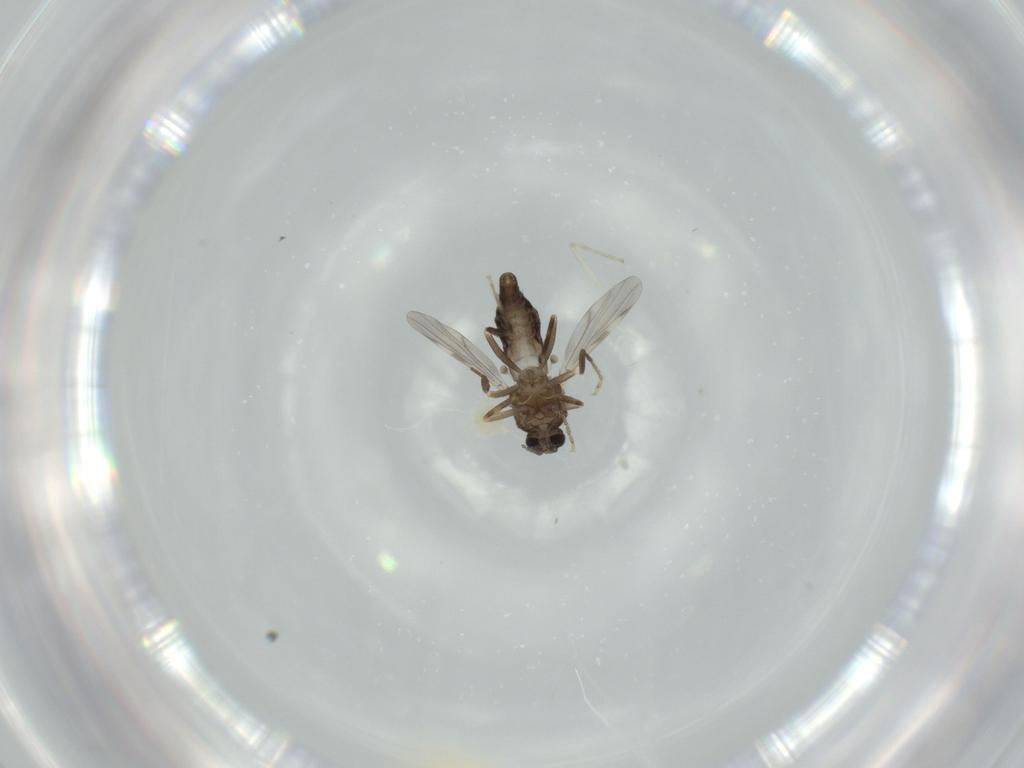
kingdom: Animalia
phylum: Arthropoda
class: Insecta
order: Diptera
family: Ceratopogonidae
